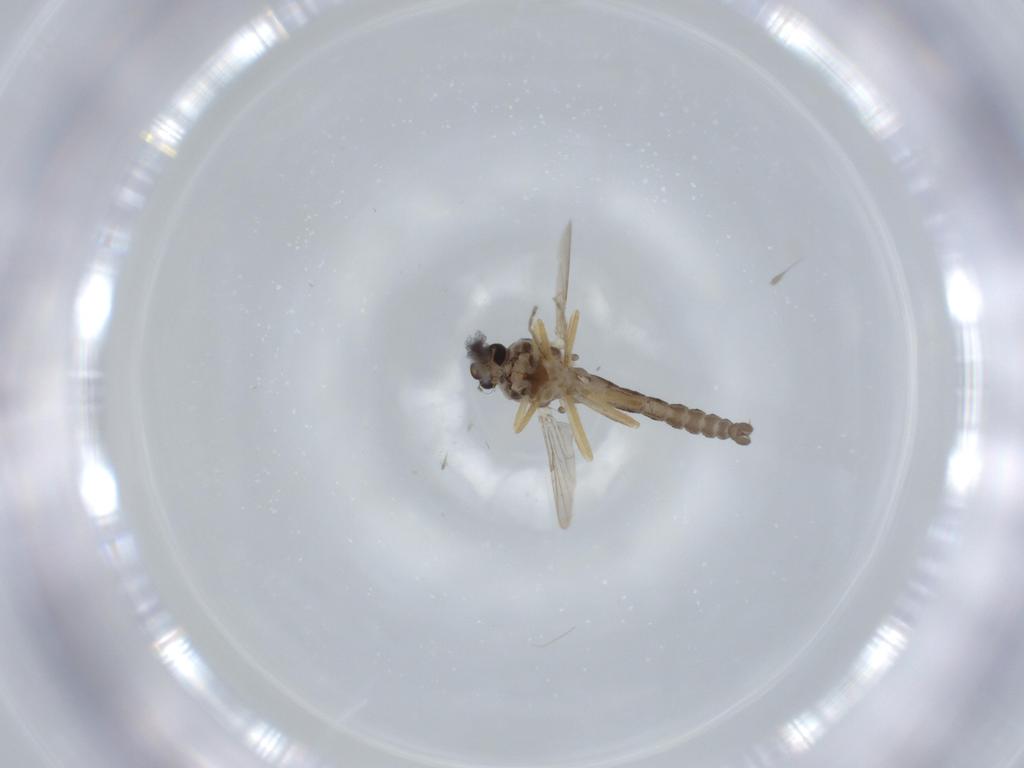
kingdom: Animalia
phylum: Arthropoda
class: Insecta
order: Diptera
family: Ceratopogonidae
